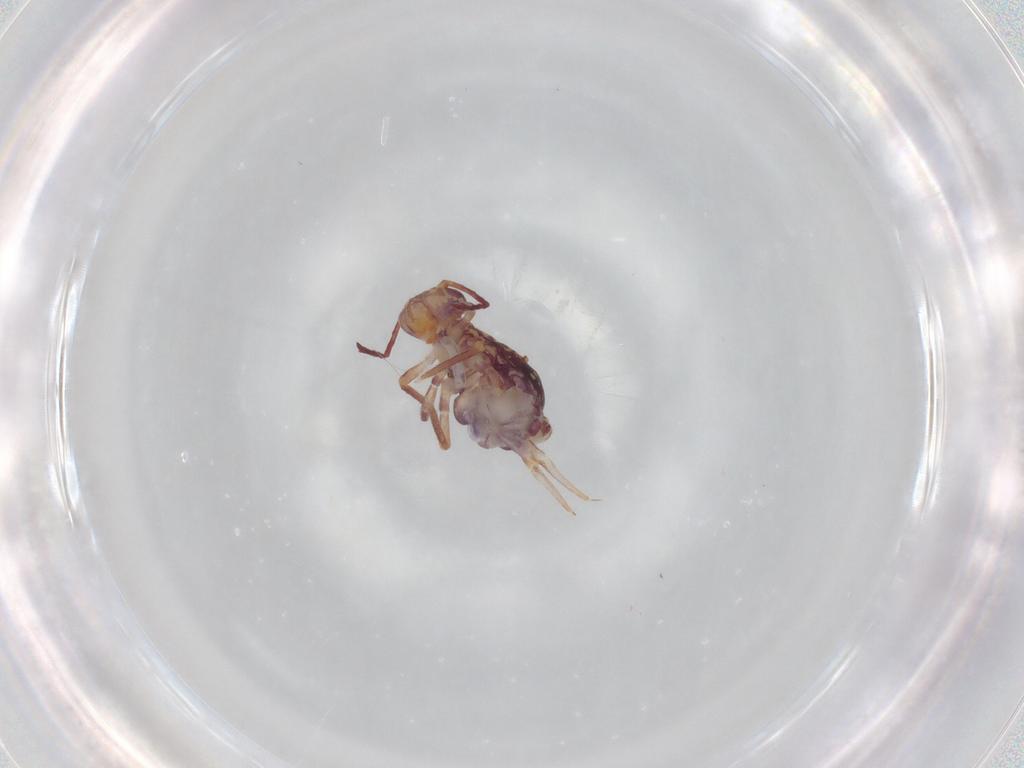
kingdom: Animalia
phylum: Arthropoda
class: Collembola
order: Symphypleona
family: Dicyrtomidae
